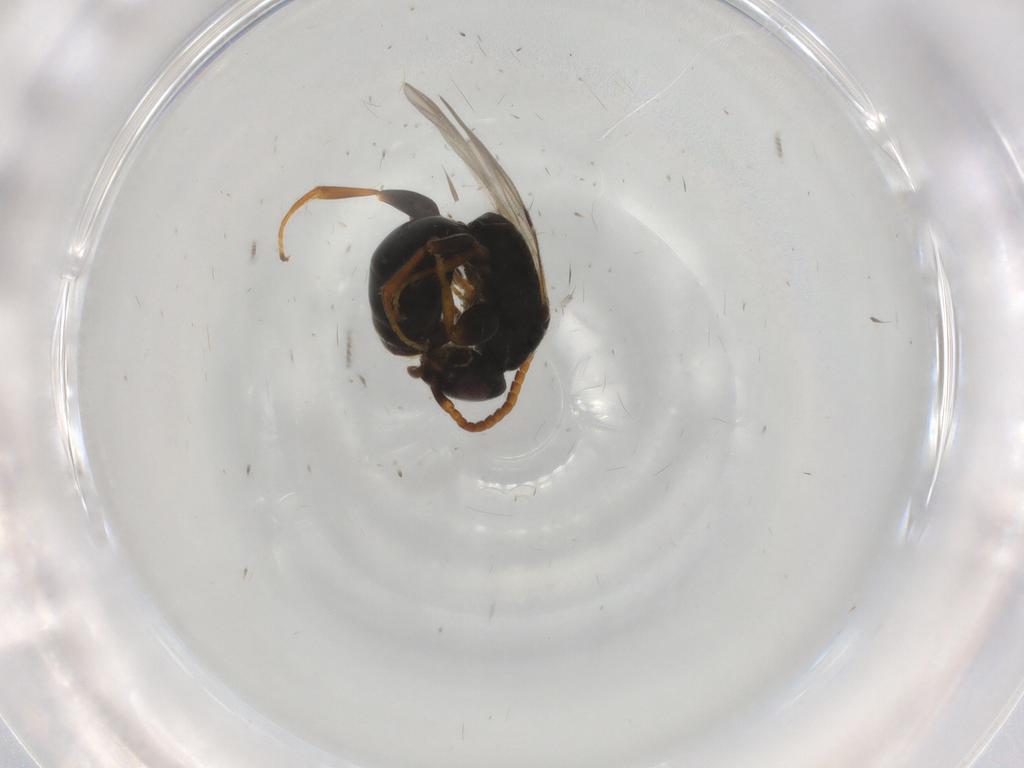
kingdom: Animalia
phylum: Arthropoda
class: Insecta
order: Hymenoptera
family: Bethylidae
